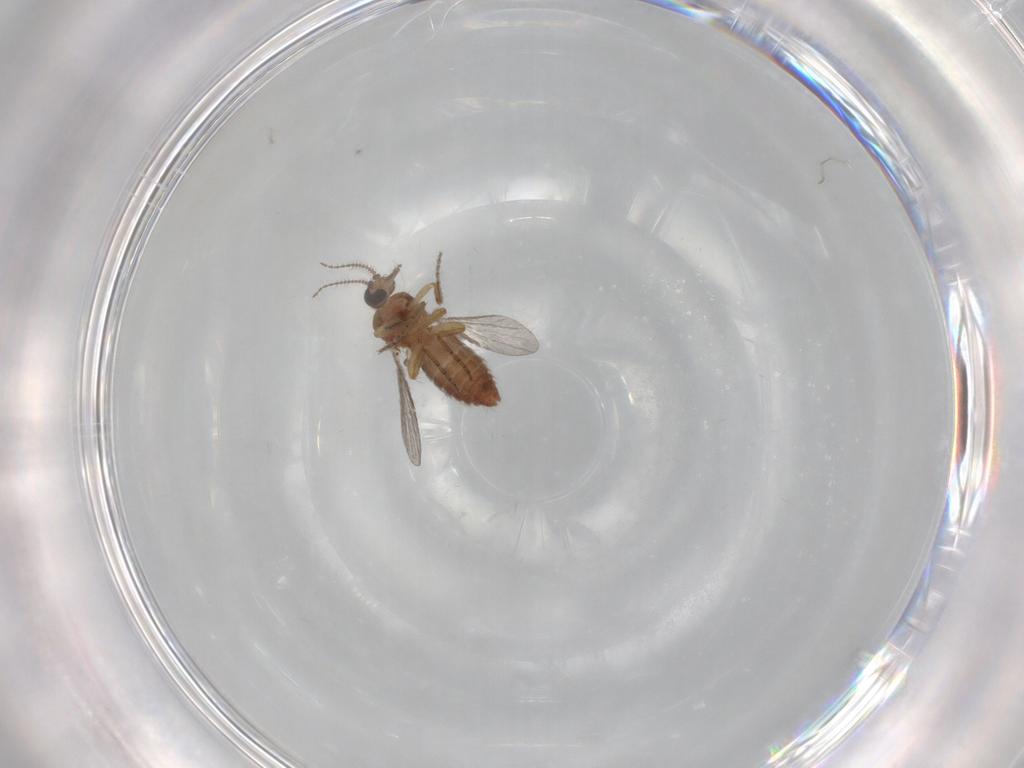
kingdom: Animalia
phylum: Arthropoda
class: Insecta
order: Diptera
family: Ceratopogonidae
